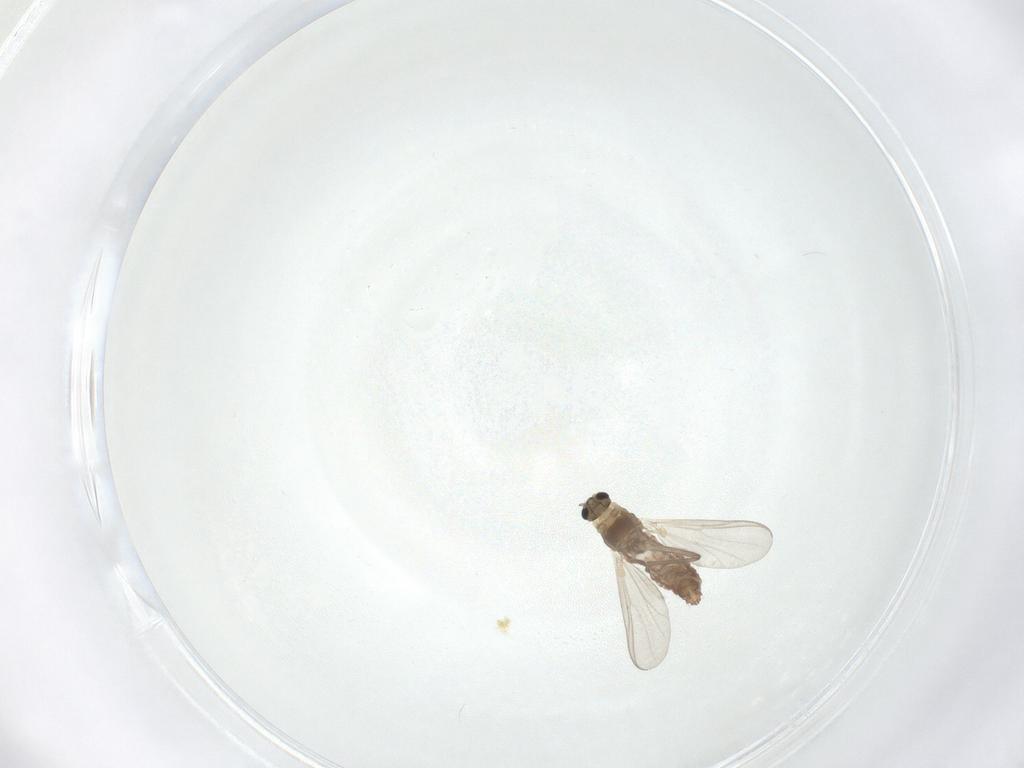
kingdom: Animalia
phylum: Arthropoda
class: Insecta
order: Diptera
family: Chironomidae
